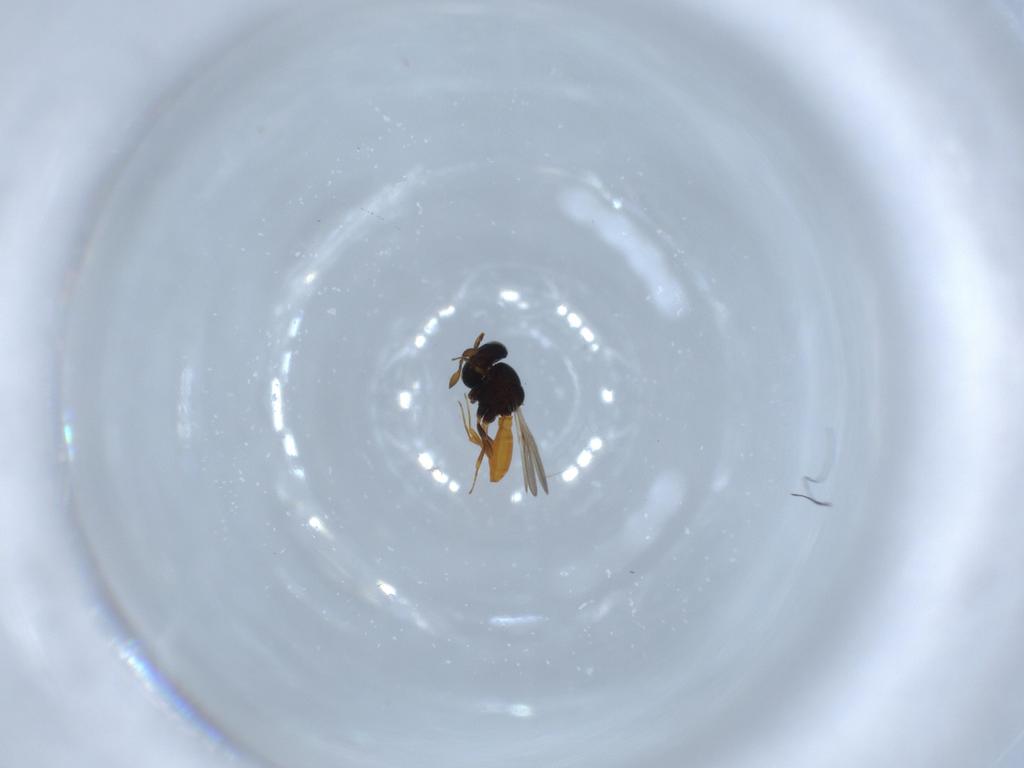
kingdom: Animalia
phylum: Arthropoda
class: Insecta
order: Hymenoptera
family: Scelionidae
